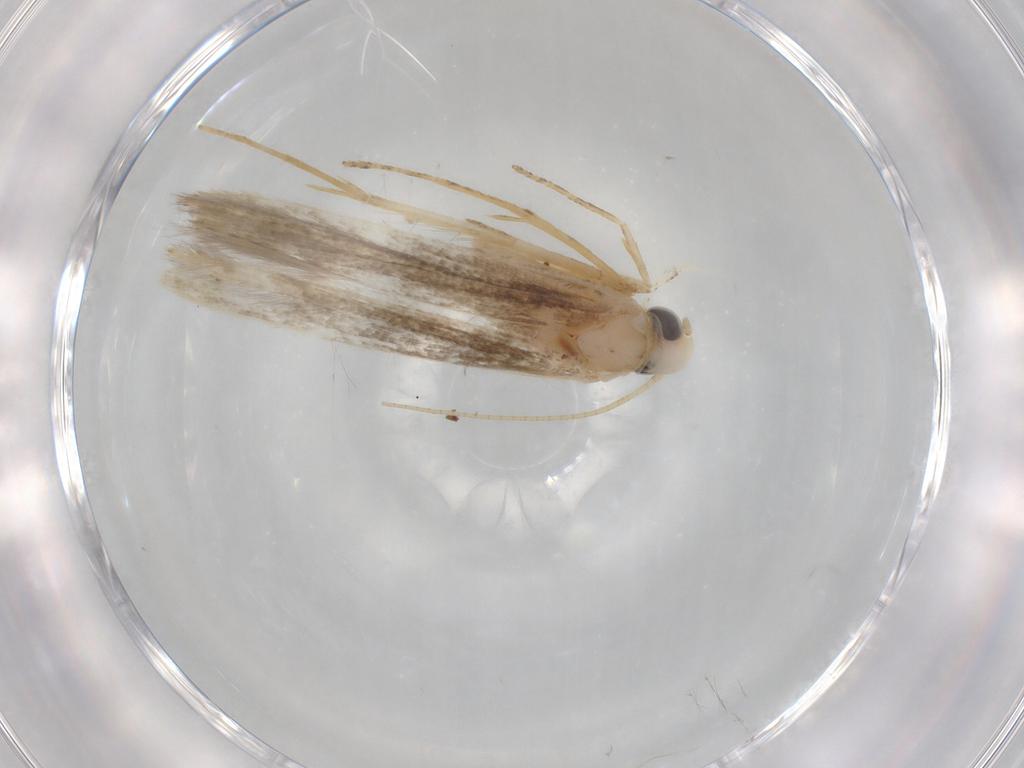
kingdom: Animalia
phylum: Arthropoda
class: Insecta
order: Lepidoptera
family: Batrachedridae
